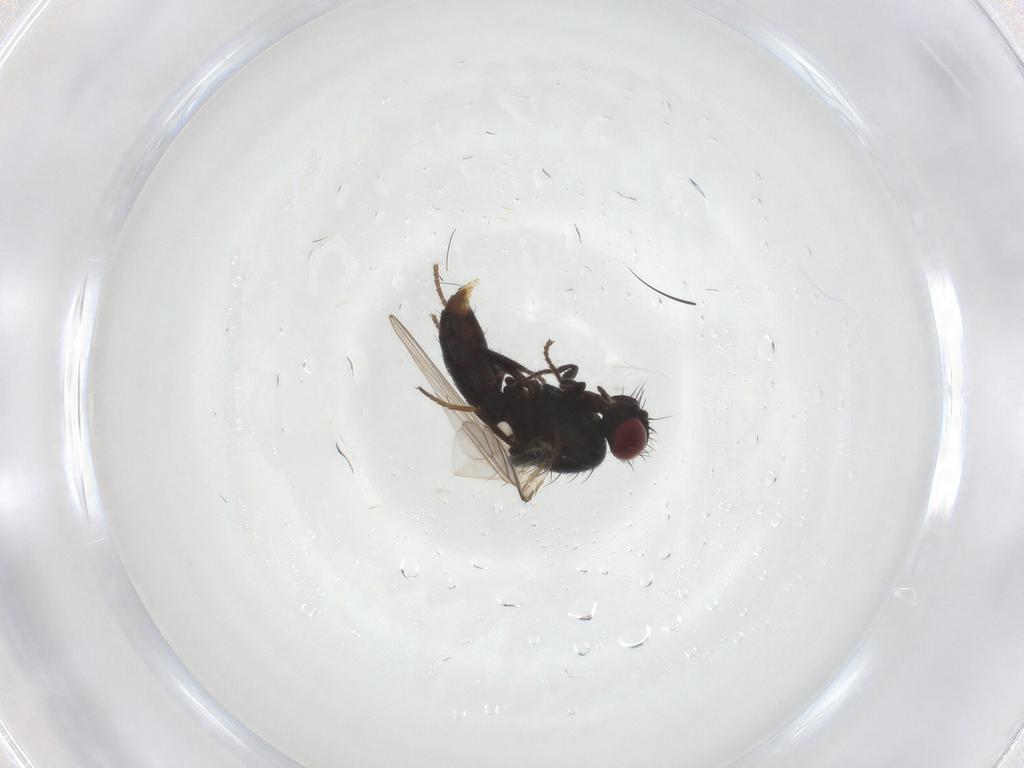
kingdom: Animalia
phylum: Arthropoda
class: Insecta
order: Diptera
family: Carnidae
